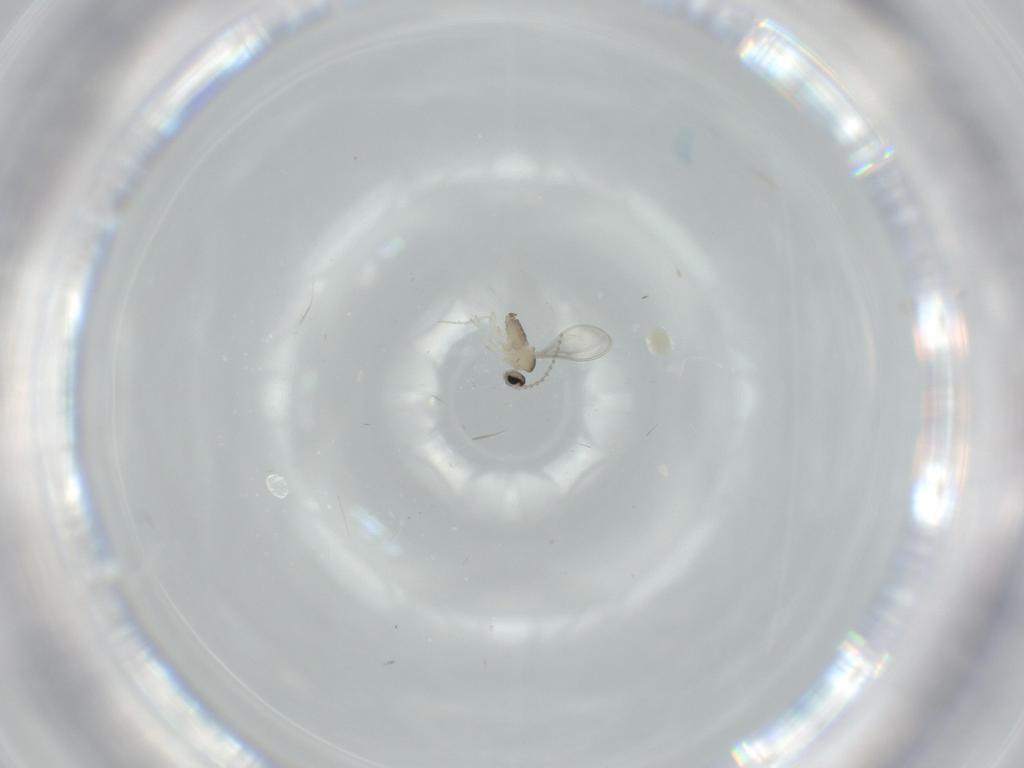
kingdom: Animalia
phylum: Arthropoda
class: Insecta
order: Diptera
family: Cecidomyiidae
